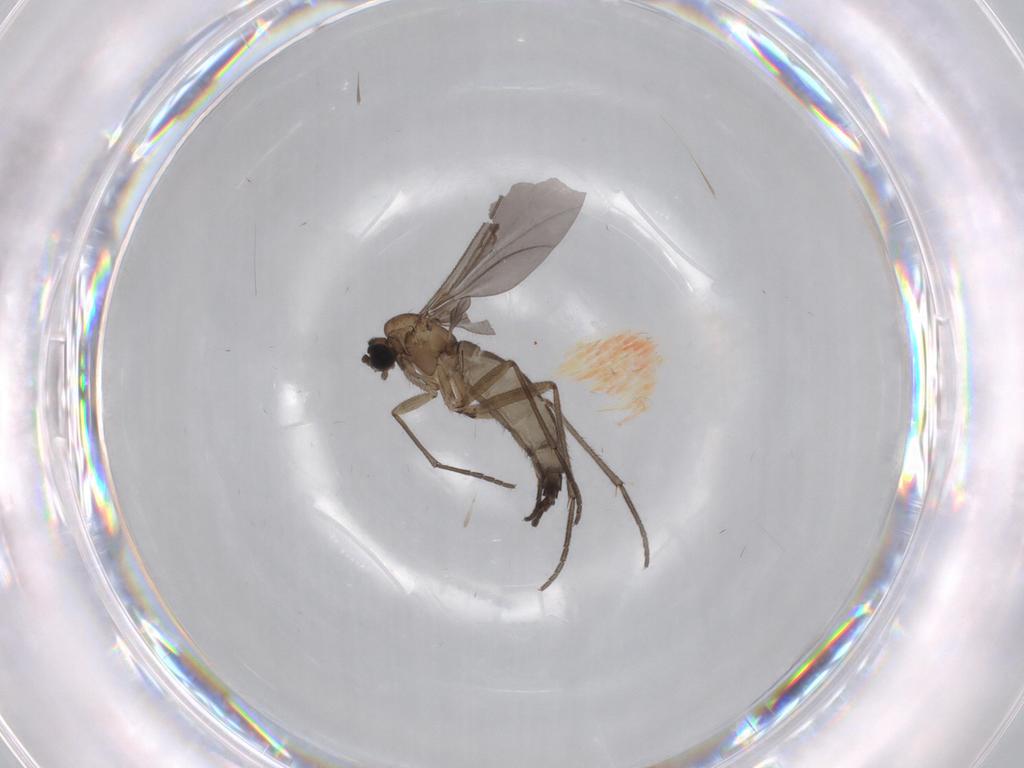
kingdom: Animalia
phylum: Arthropoda
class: Insecta
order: Diptera
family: Sciaridae
